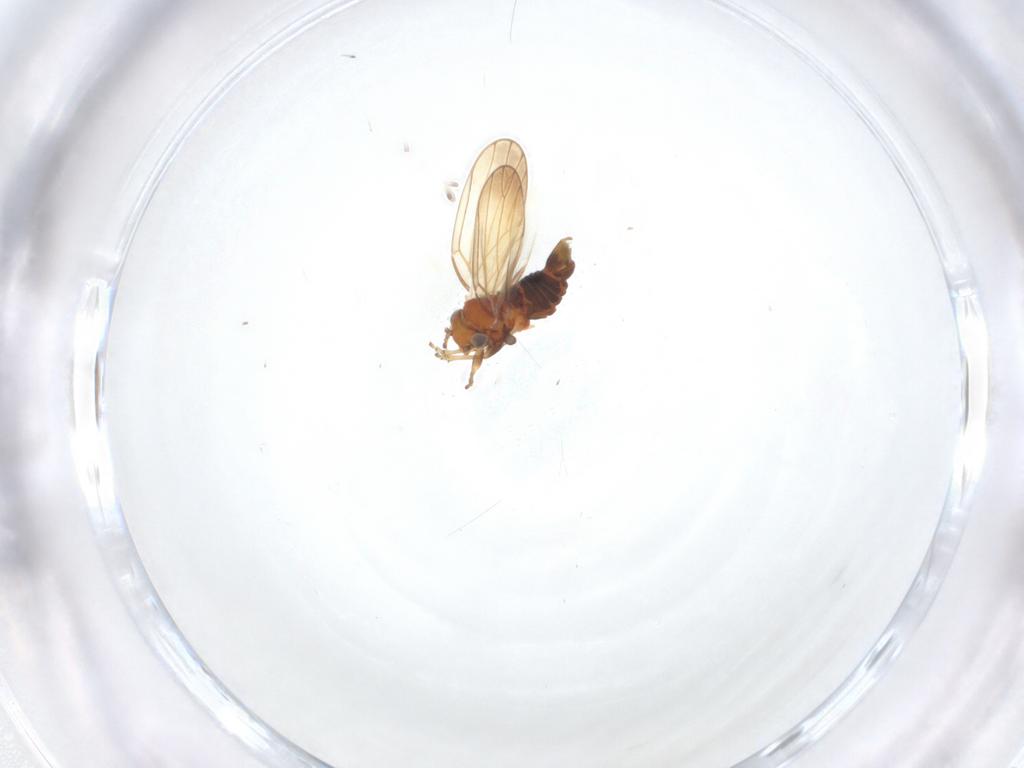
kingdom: Animalia
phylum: Arthropoda
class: Insecta
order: Hemiptera
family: Aphalaridae
